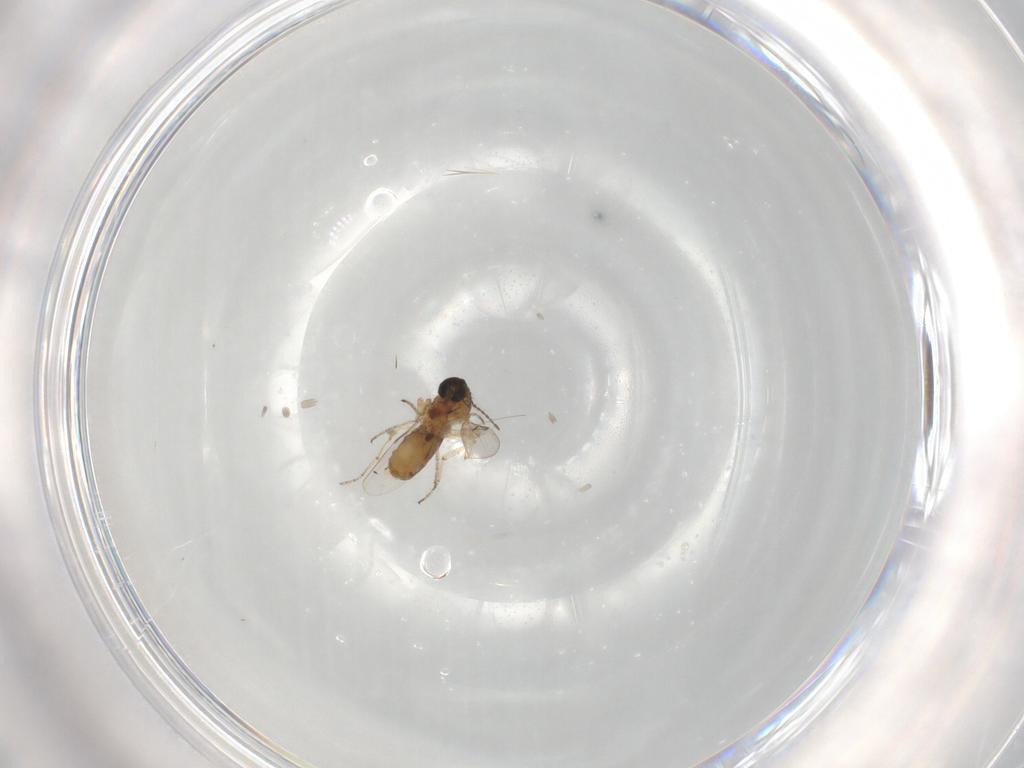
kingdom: Animalia
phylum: Arthropoda
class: Insecta
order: Diptera
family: Ceratopogonidae
